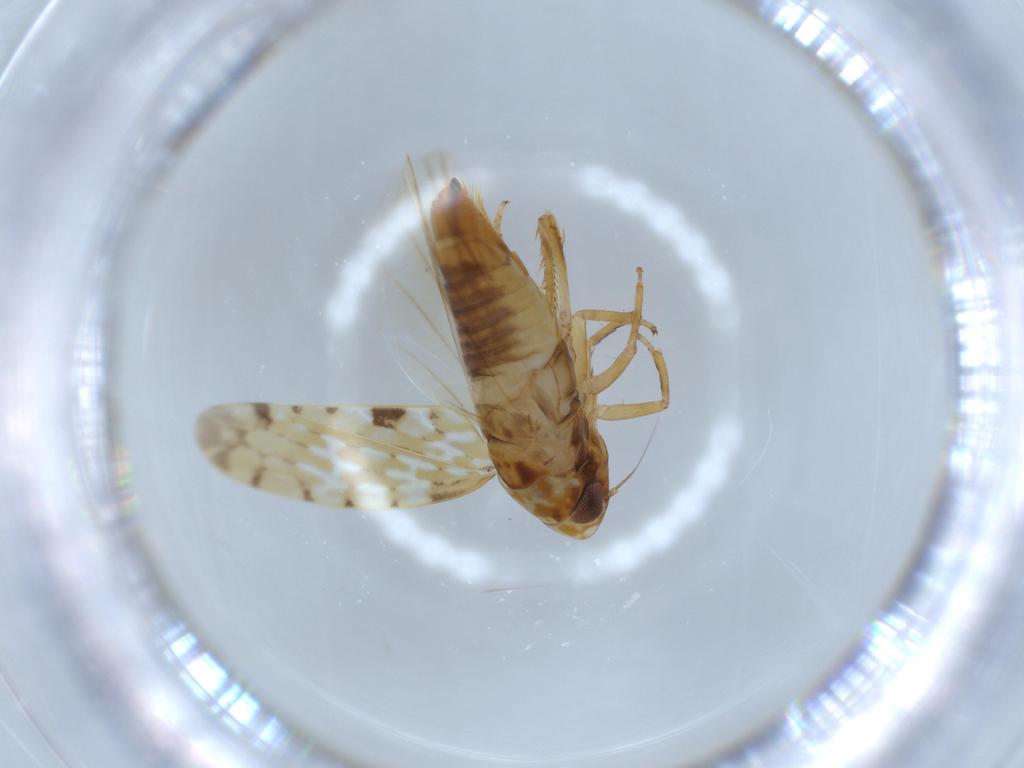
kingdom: Animalia
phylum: Arthropoda
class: Insecta
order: Hemiptera
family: Cicadellidae
